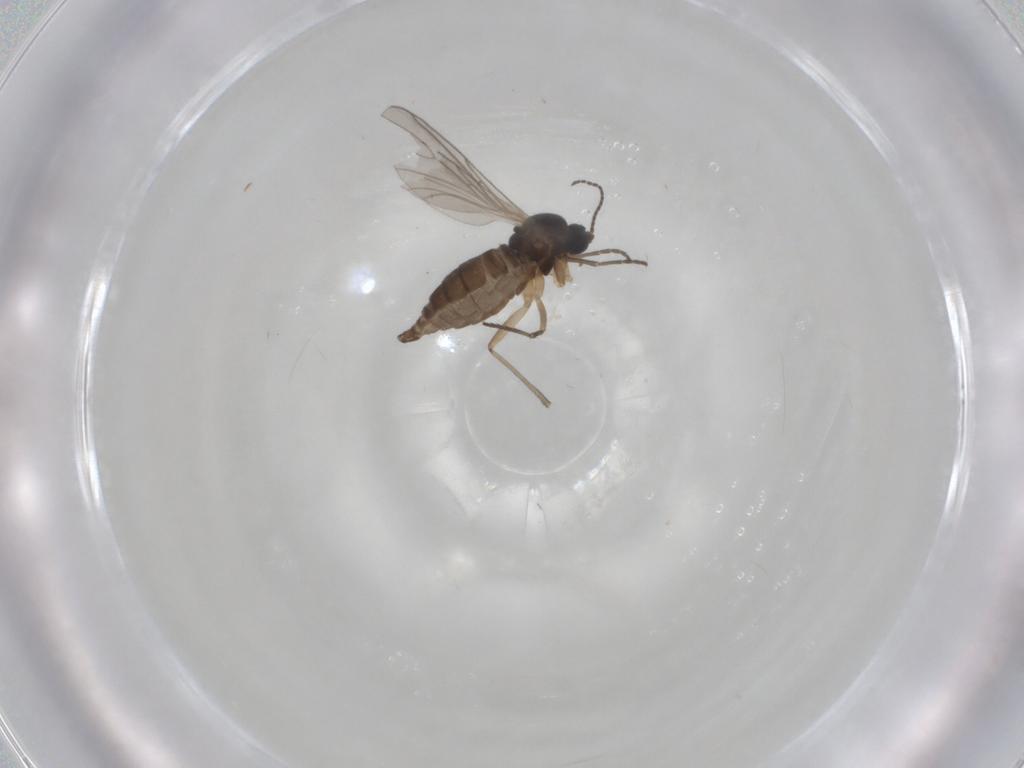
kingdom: Animalia
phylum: Arthropoda
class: Insecta
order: Diptera
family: Sciaridae
